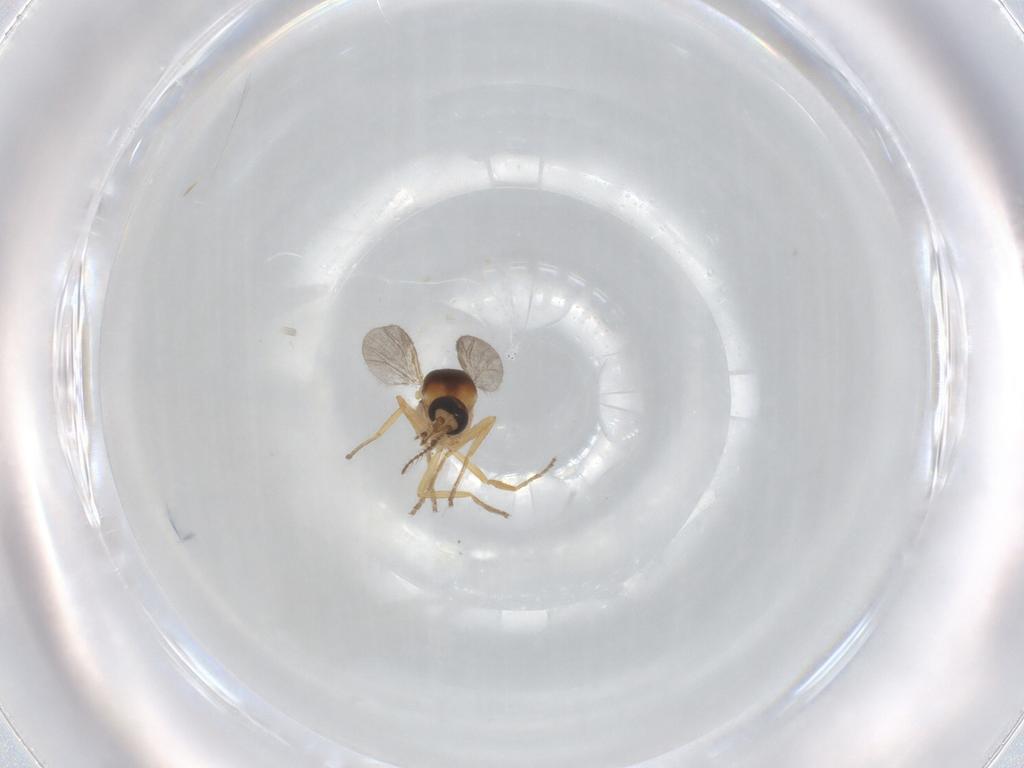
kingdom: Animalia
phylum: Arthropoda
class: Insecta
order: Diptera
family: Ceratopogonidae
